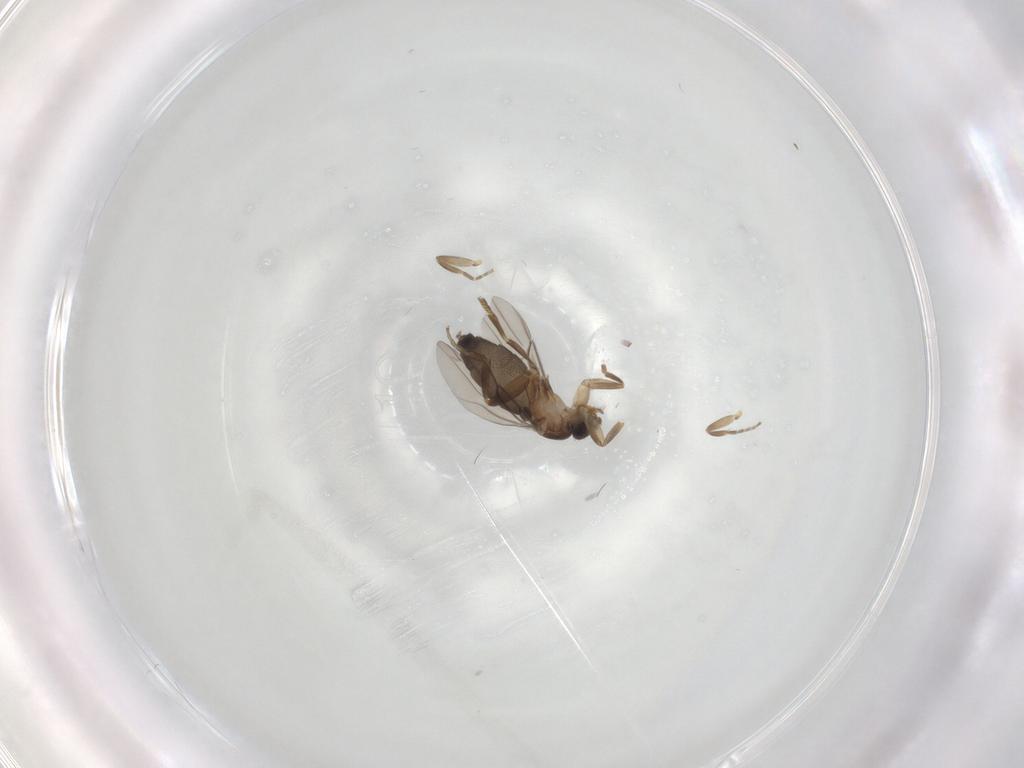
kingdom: Animalia
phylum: Arthropoda
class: Insecta
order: Diptera
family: Phoridae
